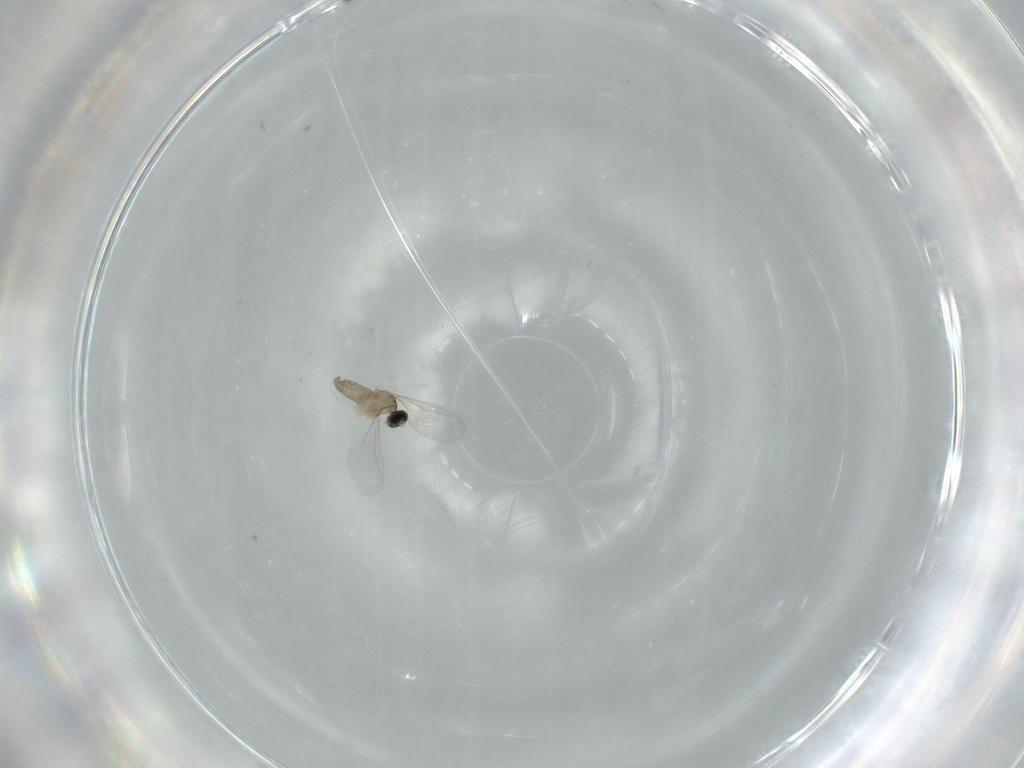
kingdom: Animalia
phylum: Arthropoda
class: Insecta
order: Diptera
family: Cecidomyiidae
